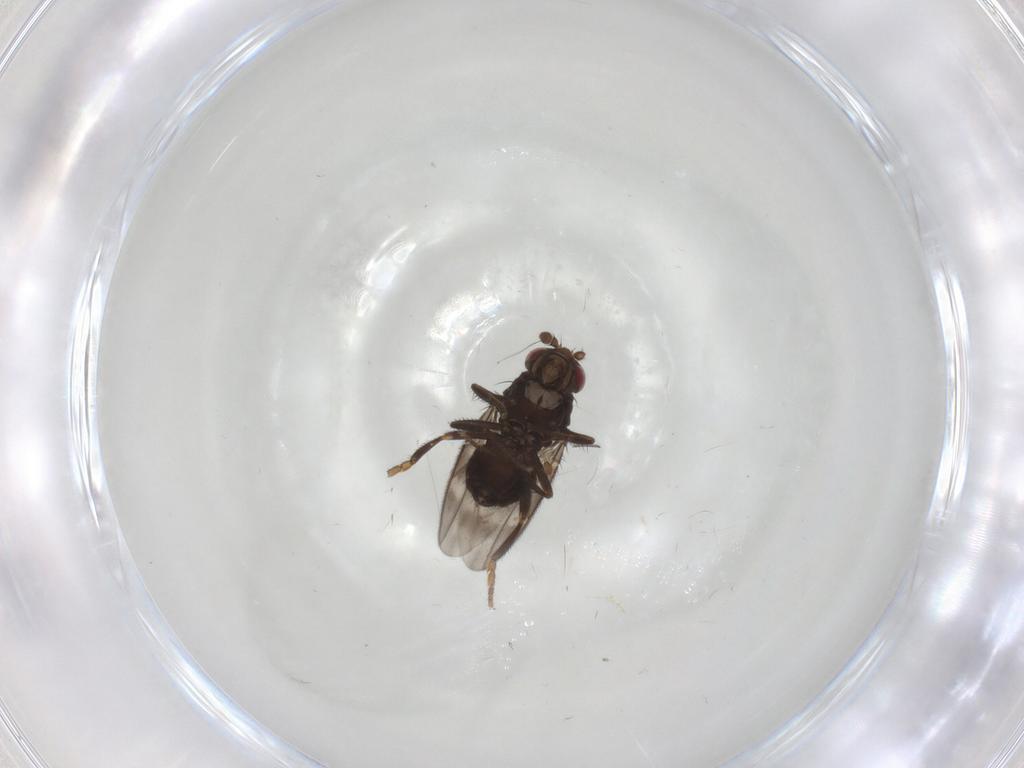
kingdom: Animalia
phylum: Arthropoda
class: Insecta
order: Diptera
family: Sphaeroceridae
